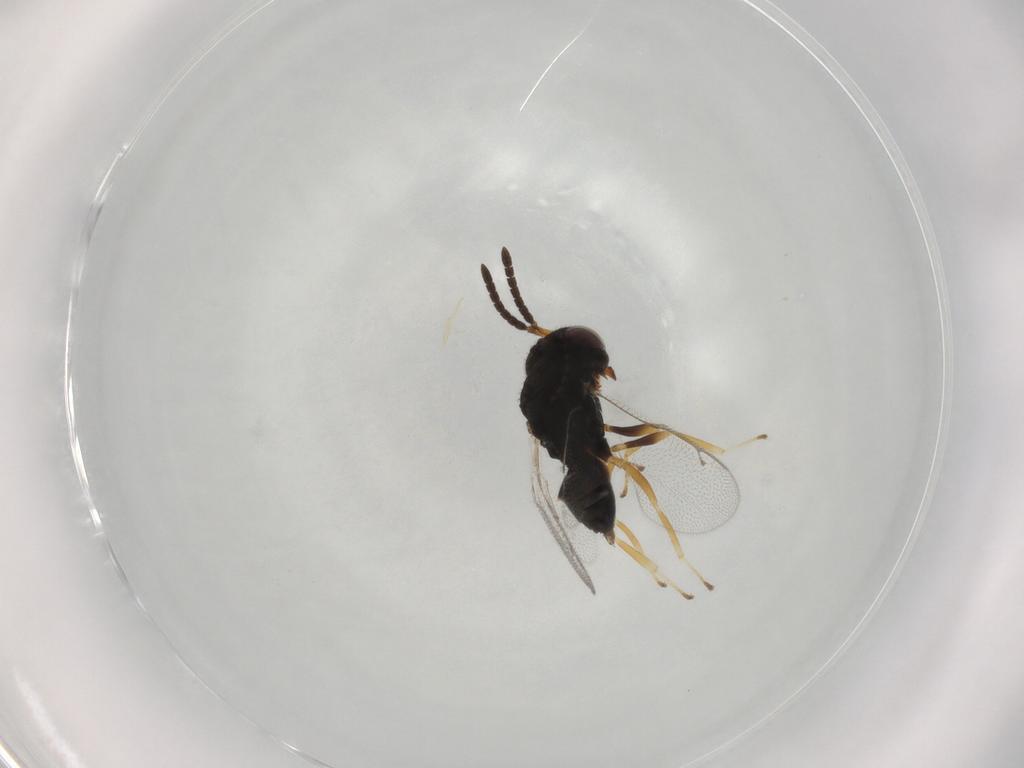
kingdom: Animalia
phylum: Arthropoda
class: Insecta
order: Hymenoptera
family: Pteromalidae
